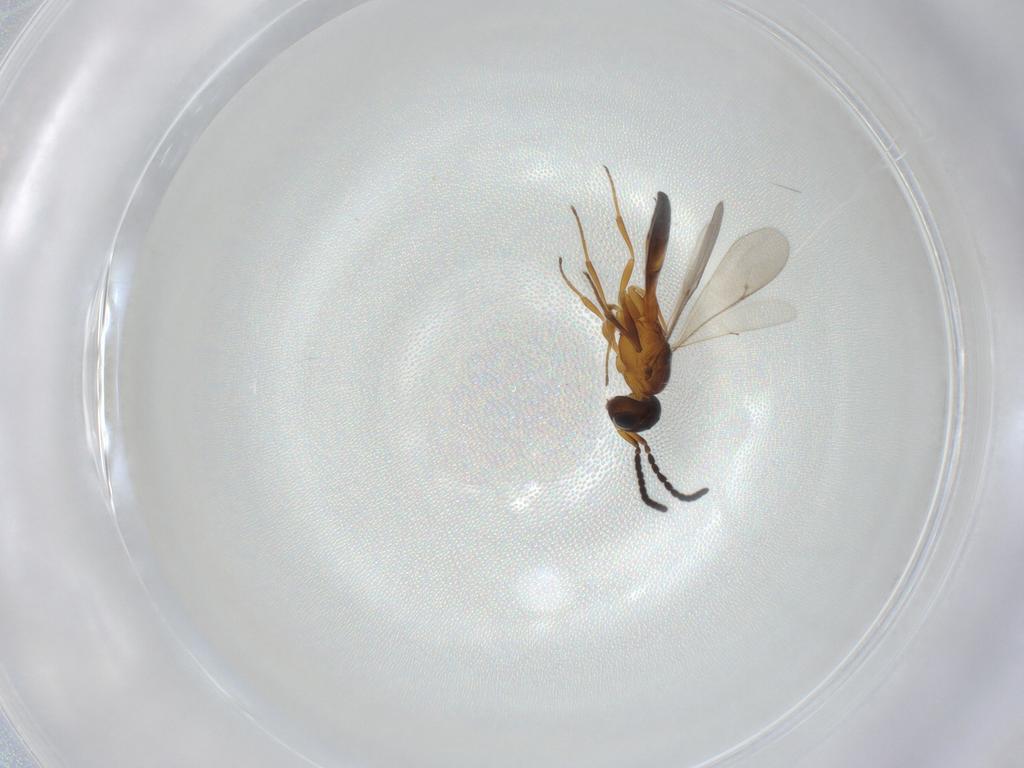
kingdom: Animalia
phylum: Arthropoda
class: Insecta
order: Hymenoptera
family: Scelionidae
